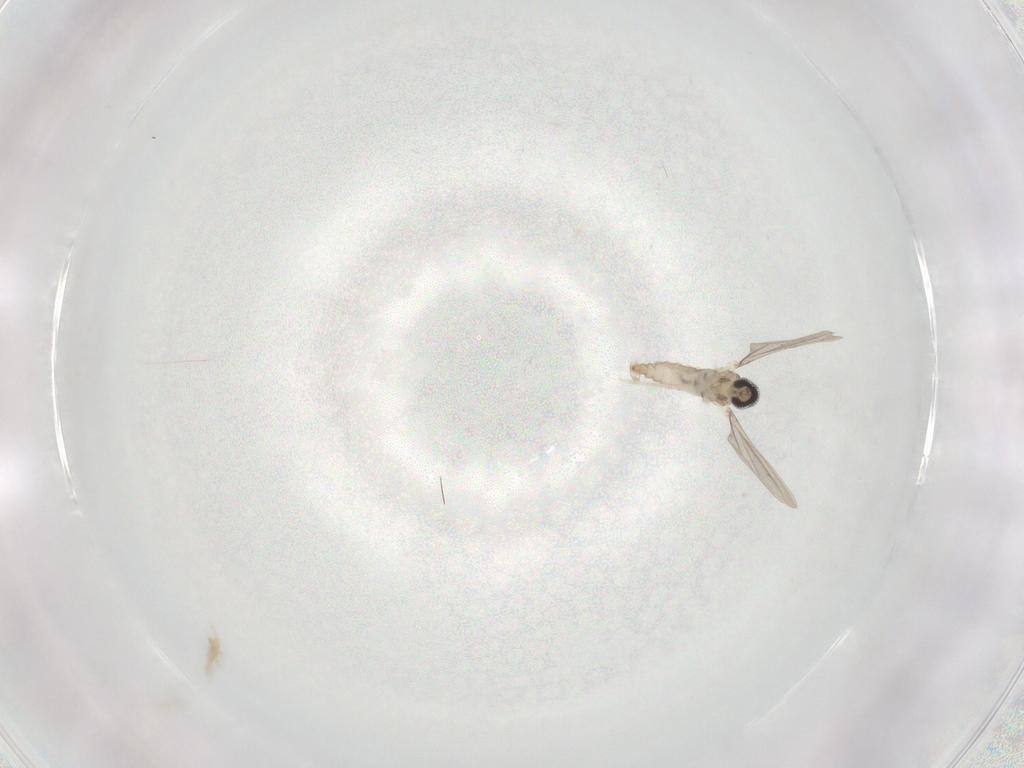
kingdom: Animalia
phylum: Arthropoda
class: Insecta
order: Diptera
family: Cecidomyiidae
